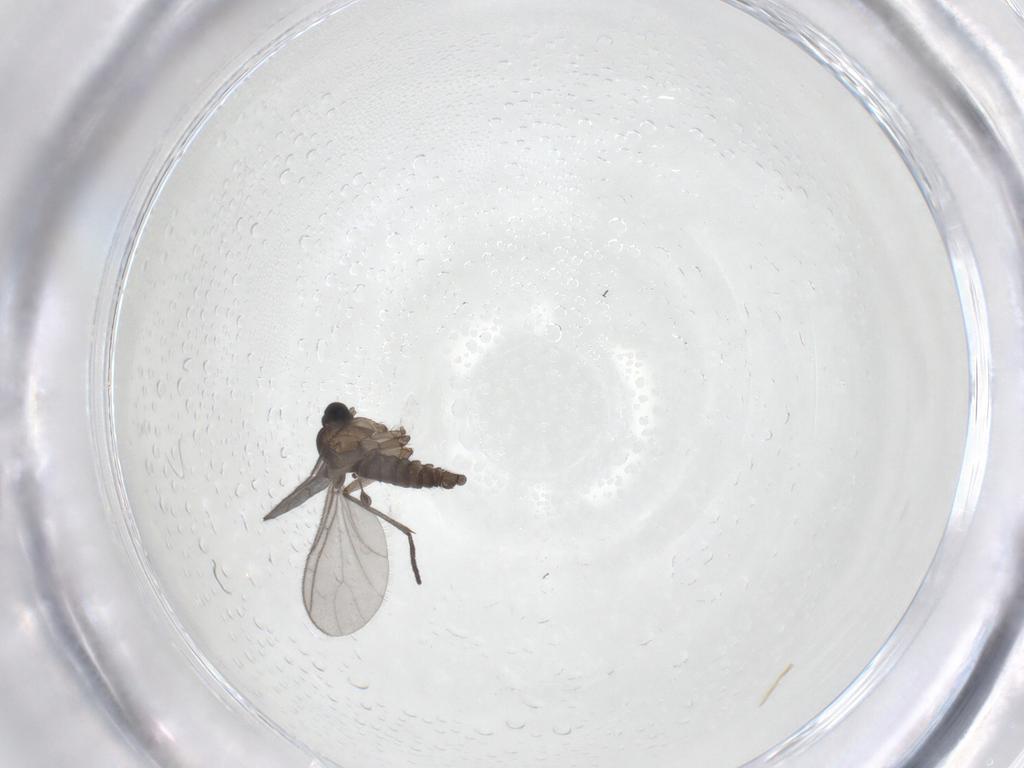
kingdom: Animalia
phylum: Arthropoda
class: Insecta
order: Diptera
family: Sciaridae
